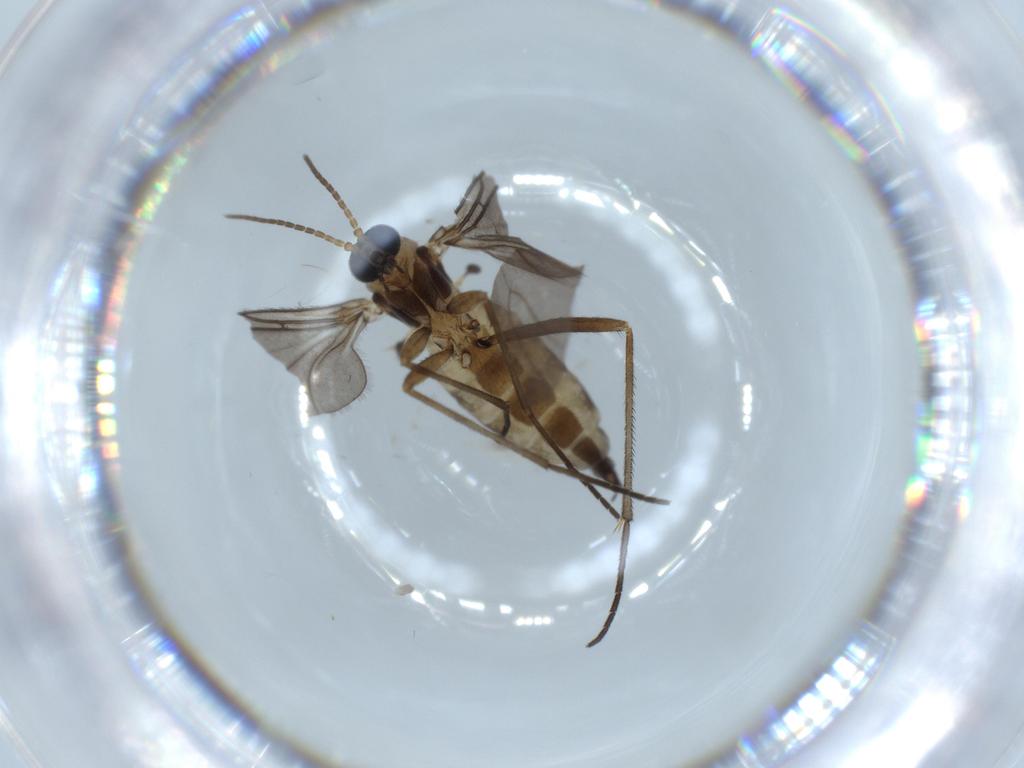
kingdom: Animalia
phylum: Arthropoda
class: Insecta
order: Diptera
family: Sciaridae
